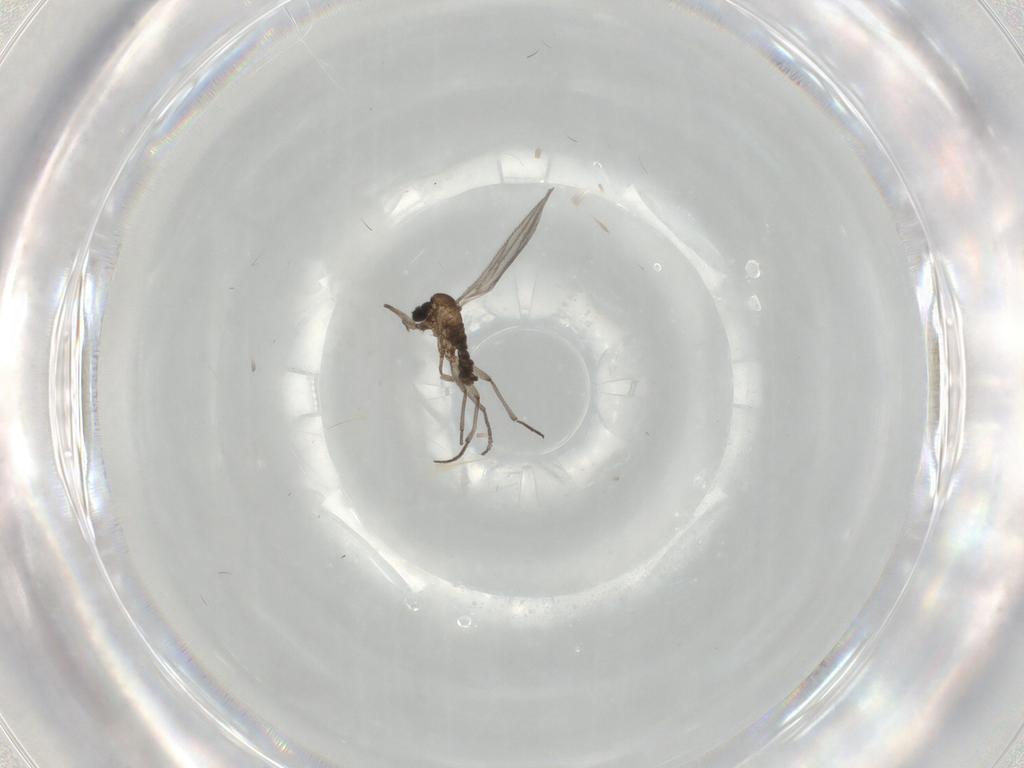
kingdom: Animalia
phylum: Arthropoda
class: Insecta
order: Diptera
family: Sciaridae
